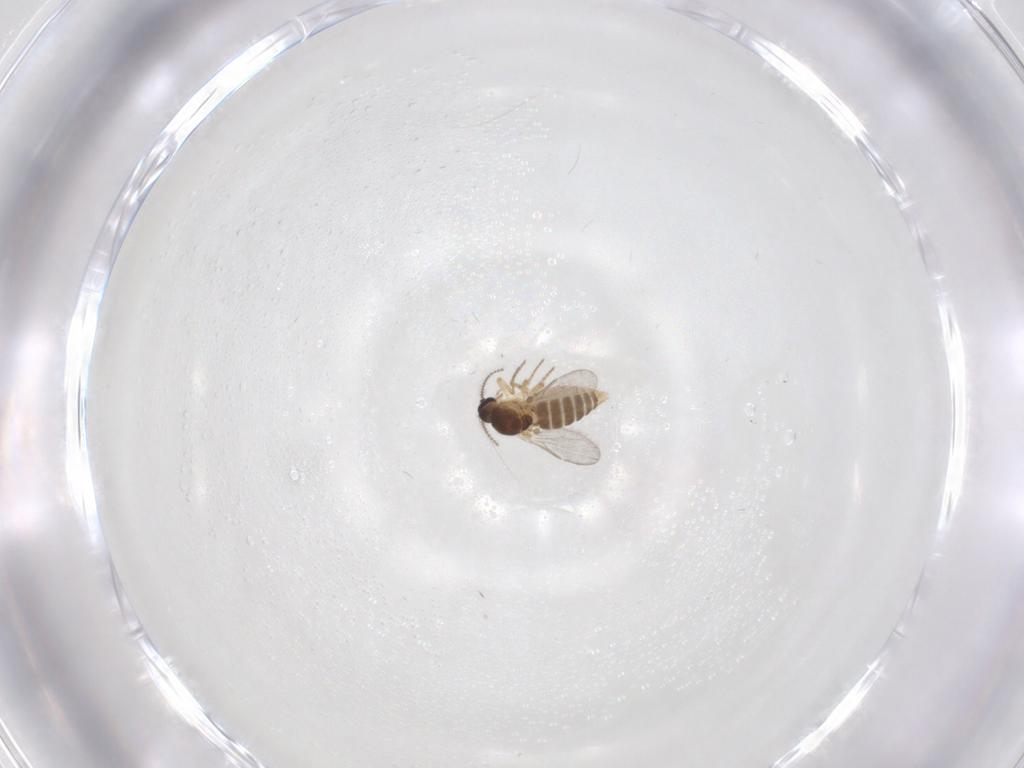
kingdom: Animalia
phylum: Arthropoda
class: Insecta
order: Diptera
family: Ceratopogonidae
